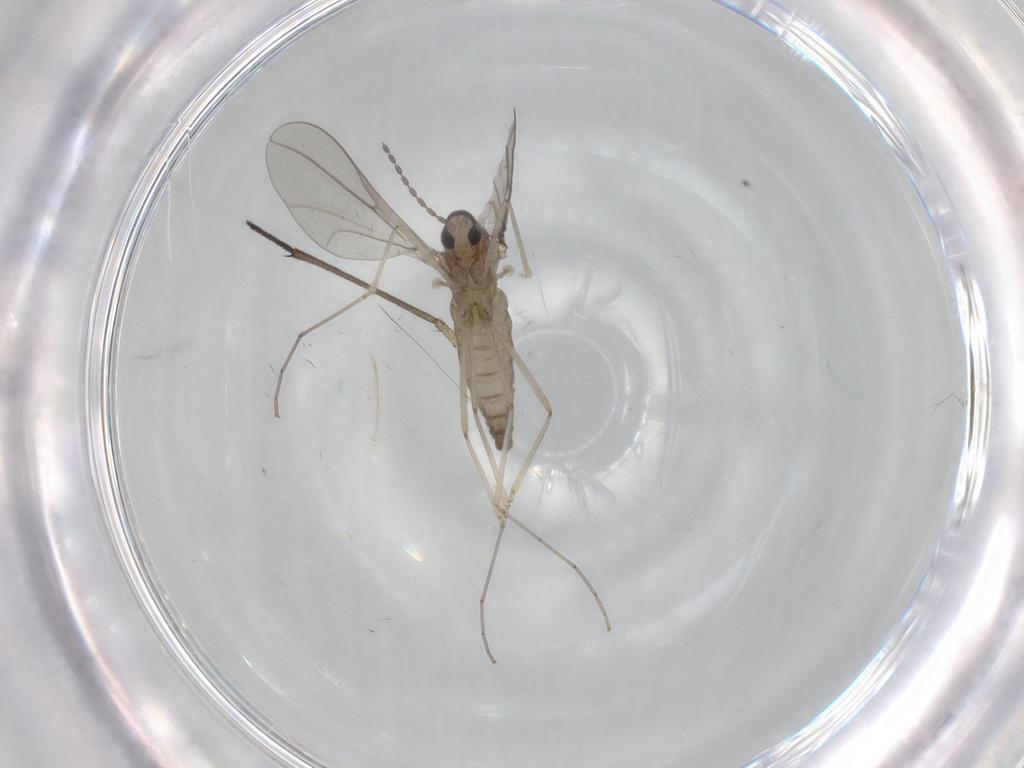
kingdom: Animalia
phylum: Arthropoda
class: Insecta
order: Diptera
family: Cecidomyiidae
